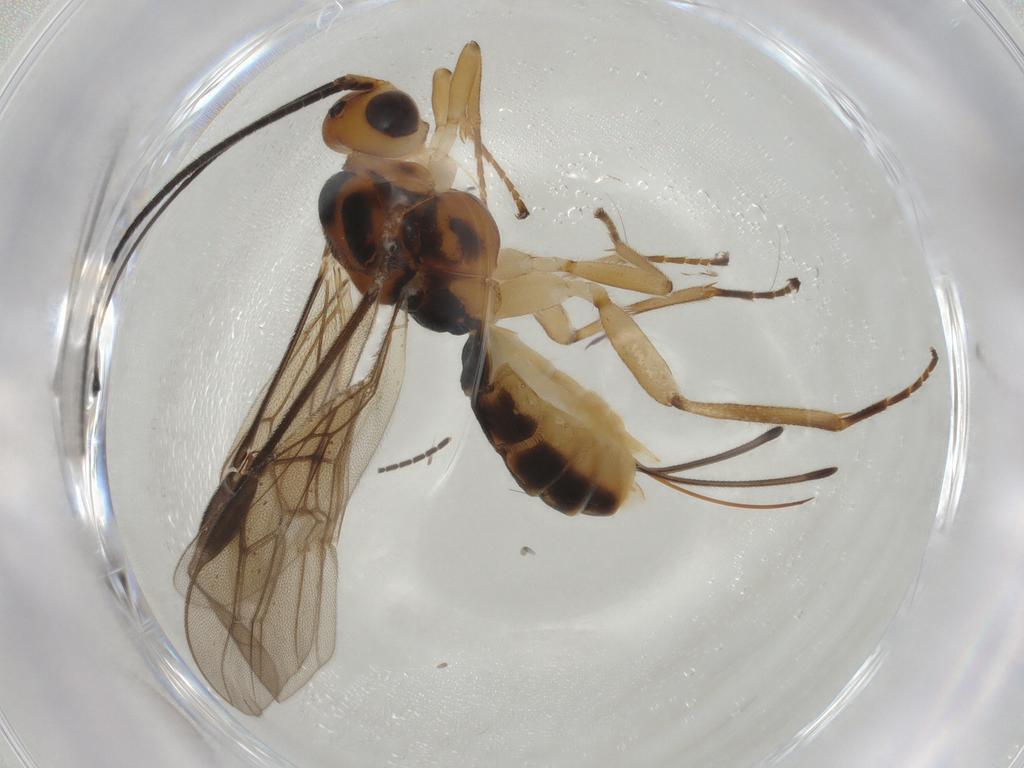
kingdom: Animalia
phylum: Arthropoda
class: Insecta
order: Hymenoptera
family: Braconidae
